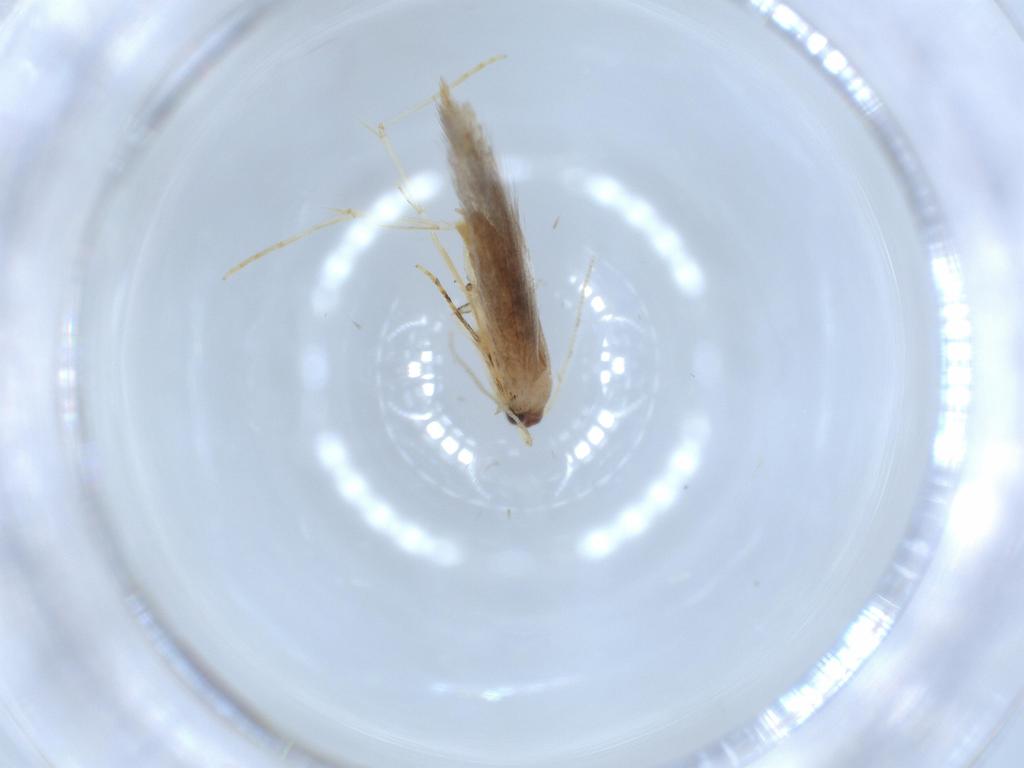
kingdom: Animalia
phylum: Arthropoda
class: Insecta
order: Lepidoptera
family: Tineidae
